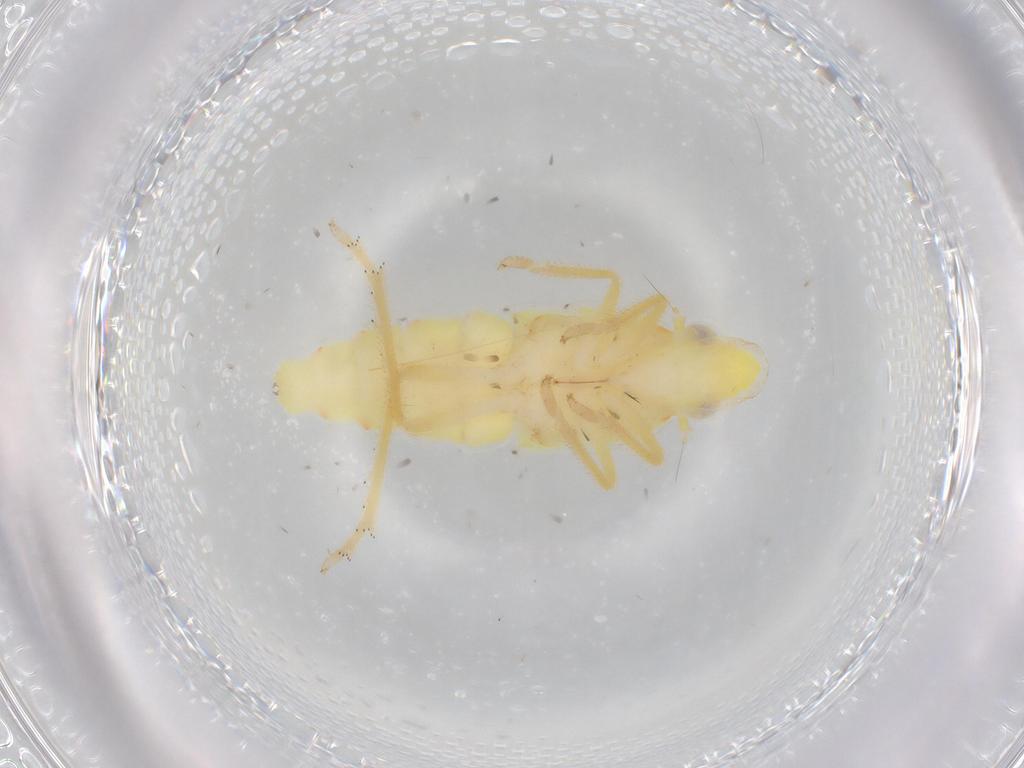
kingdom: Animalia
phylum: Arthropoda
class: Insecta
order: Hemiptera
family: Tropiduchidae
